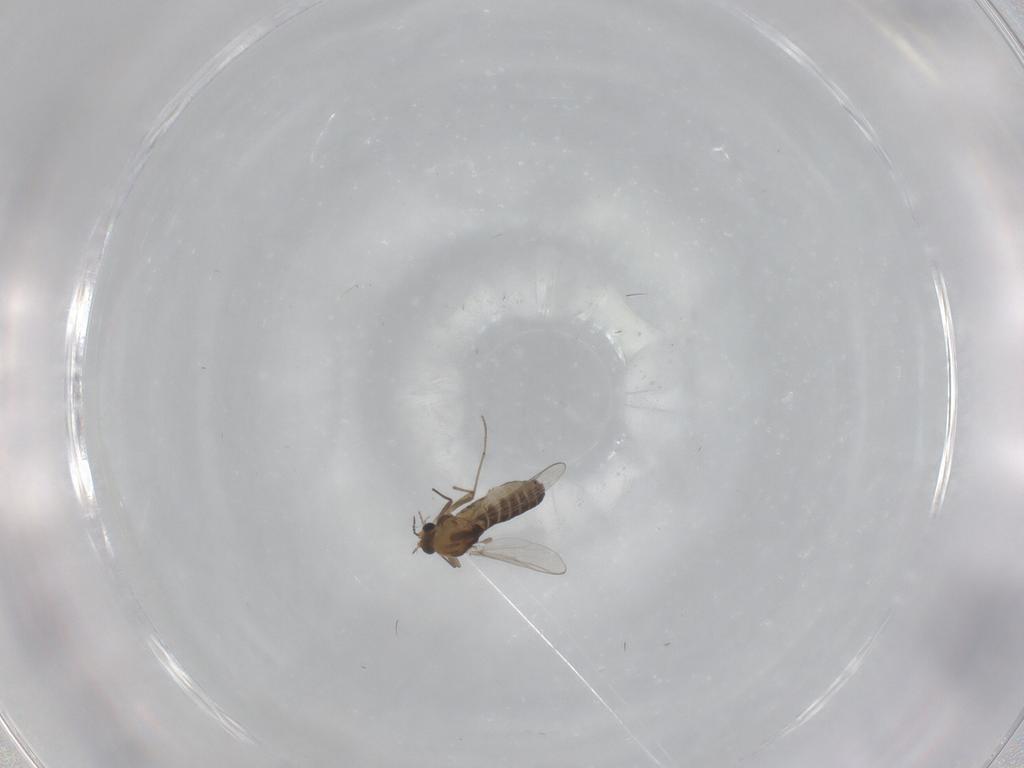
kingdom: Animalia
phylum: Arthropoda
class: Insecta
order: Diptera
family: Chironomidae
